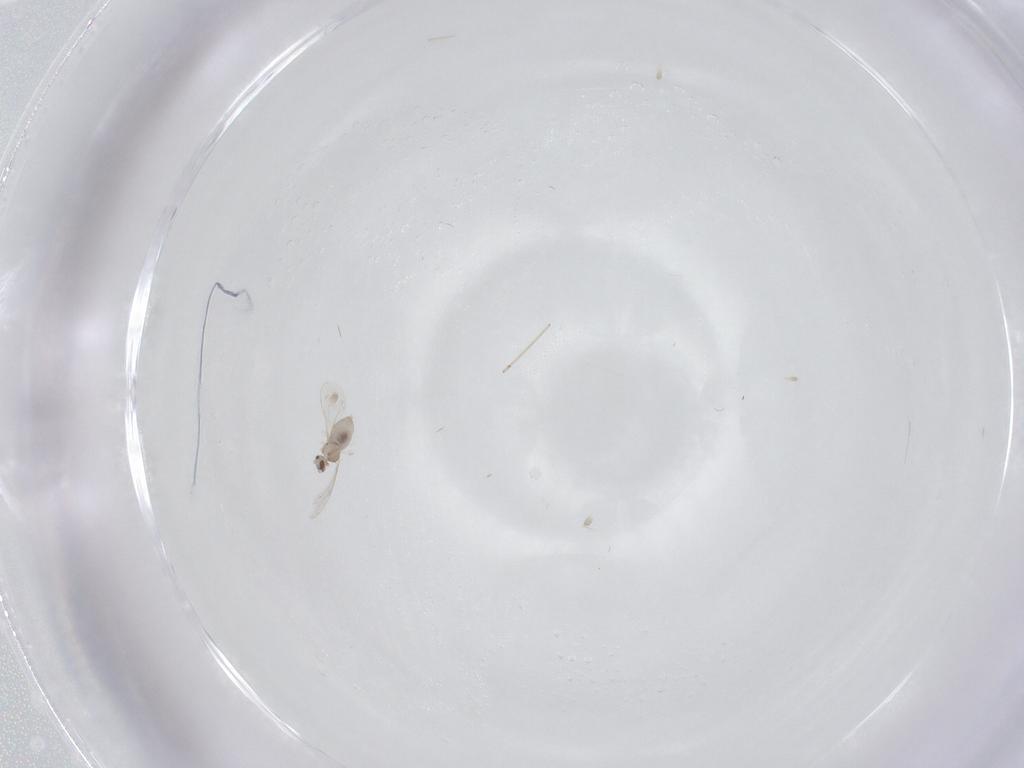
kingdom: Animalia
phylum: Arthropoda
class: Insecta
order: Diptera
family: Cecidomyiidae
